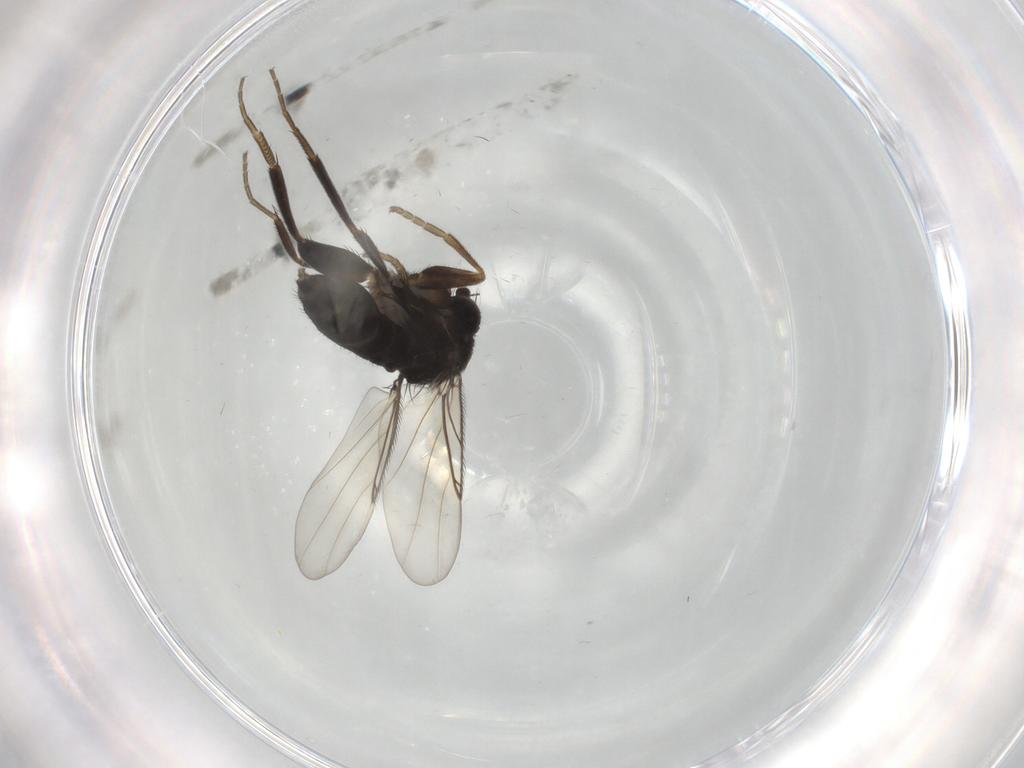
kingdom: Animalia
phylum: Arthropoda
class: Insecta
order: Diptera
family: Phoridae
